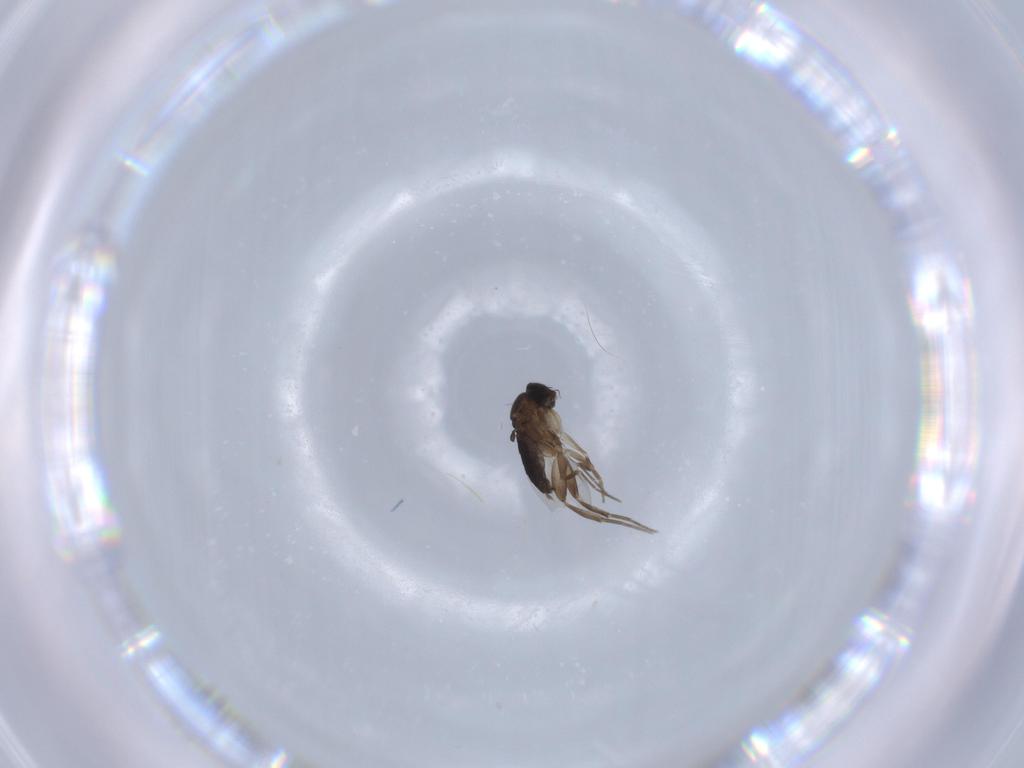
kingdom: Animalia
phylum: Arthropoda
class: Insecta
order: Diptera
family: Phoridae
